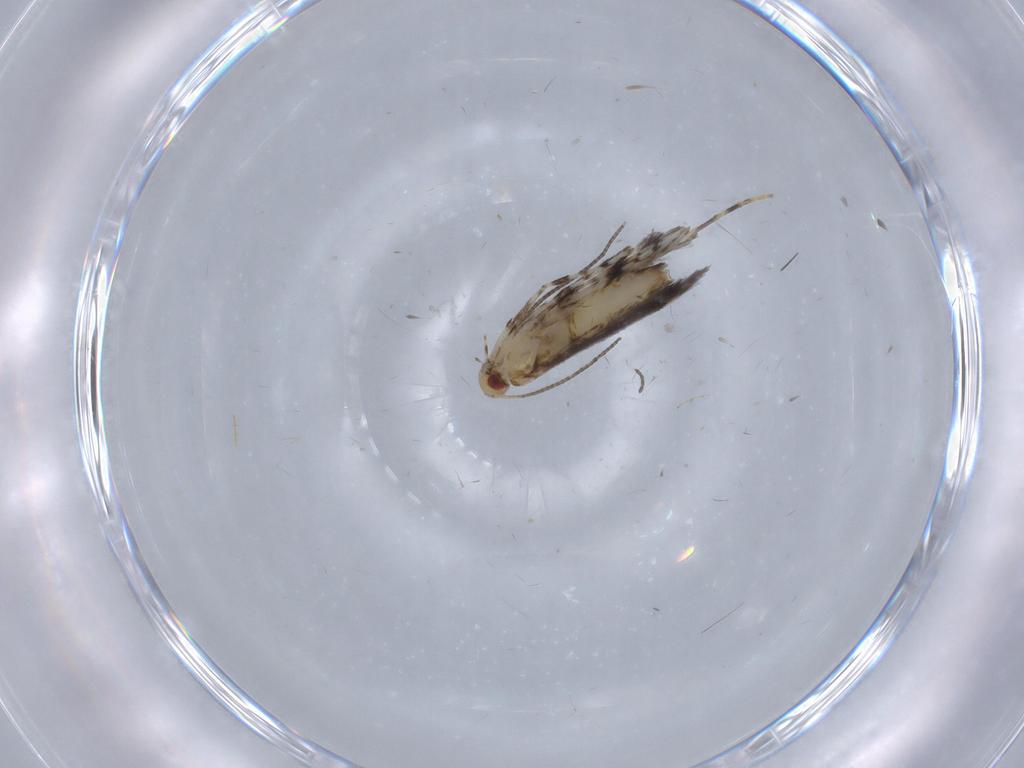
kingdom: Animalia
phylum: Arthropoda
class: Insecta
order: Lepidoptera
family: Gracillariidae
